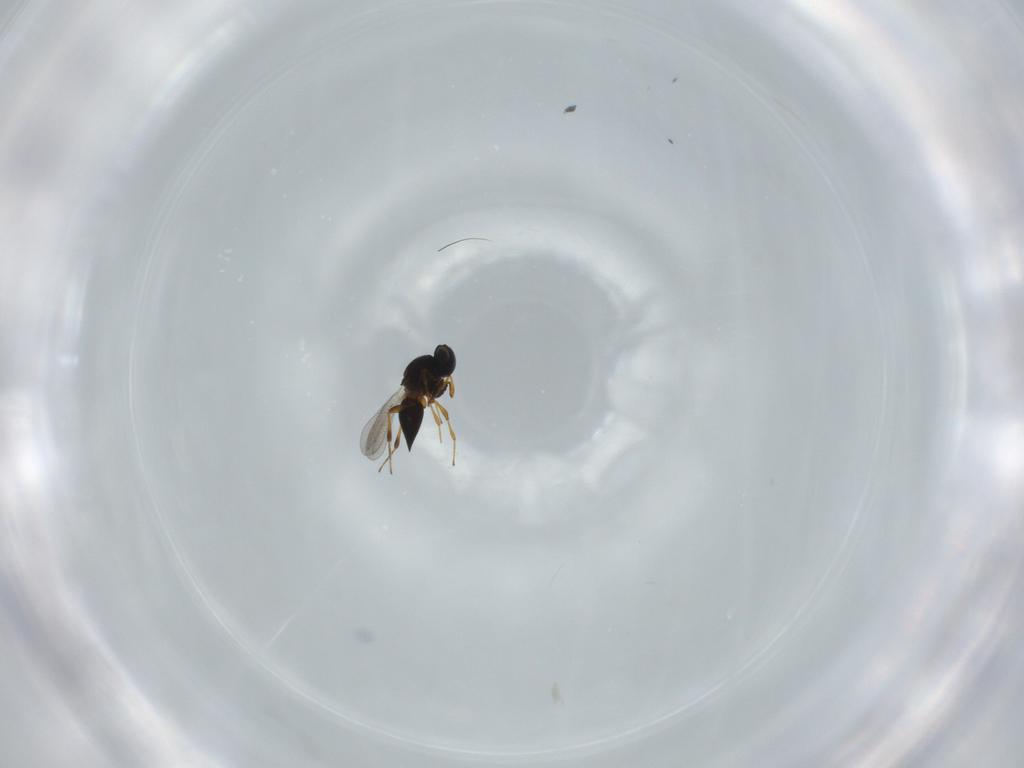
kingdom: Animalia
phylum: Arthropoda
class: Insecta
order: Hymenoptera
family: Platygastridae
